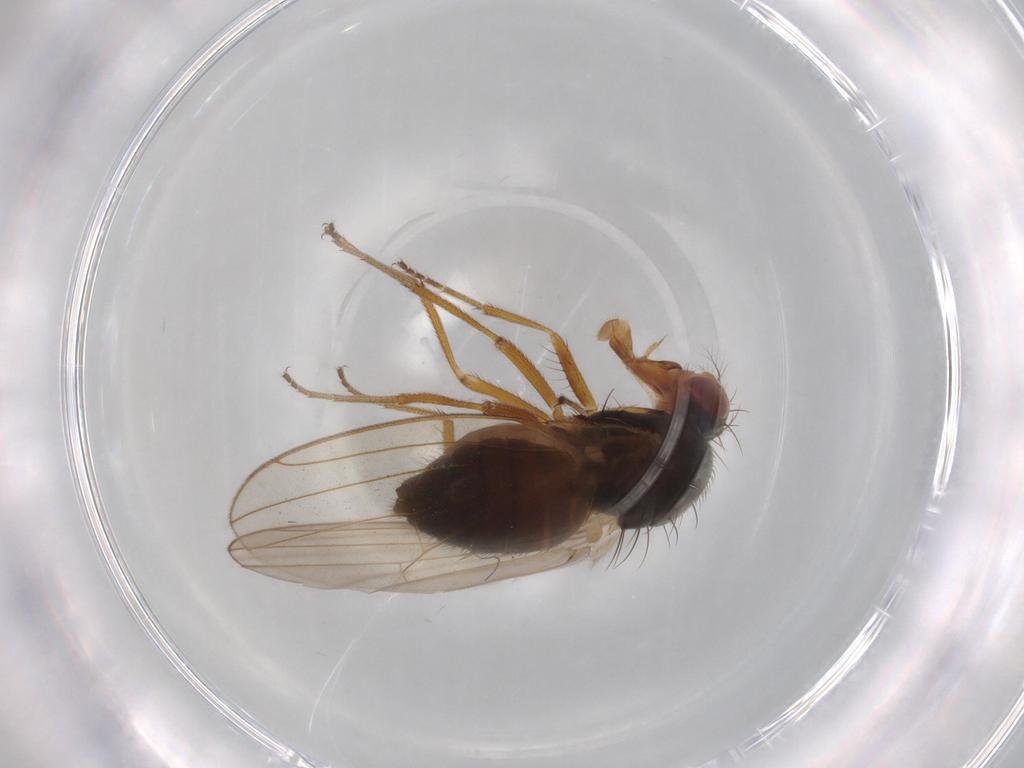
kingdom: Animalia
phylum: Arthropoda
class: Insecta
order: Diptera
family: Drosophilidae
